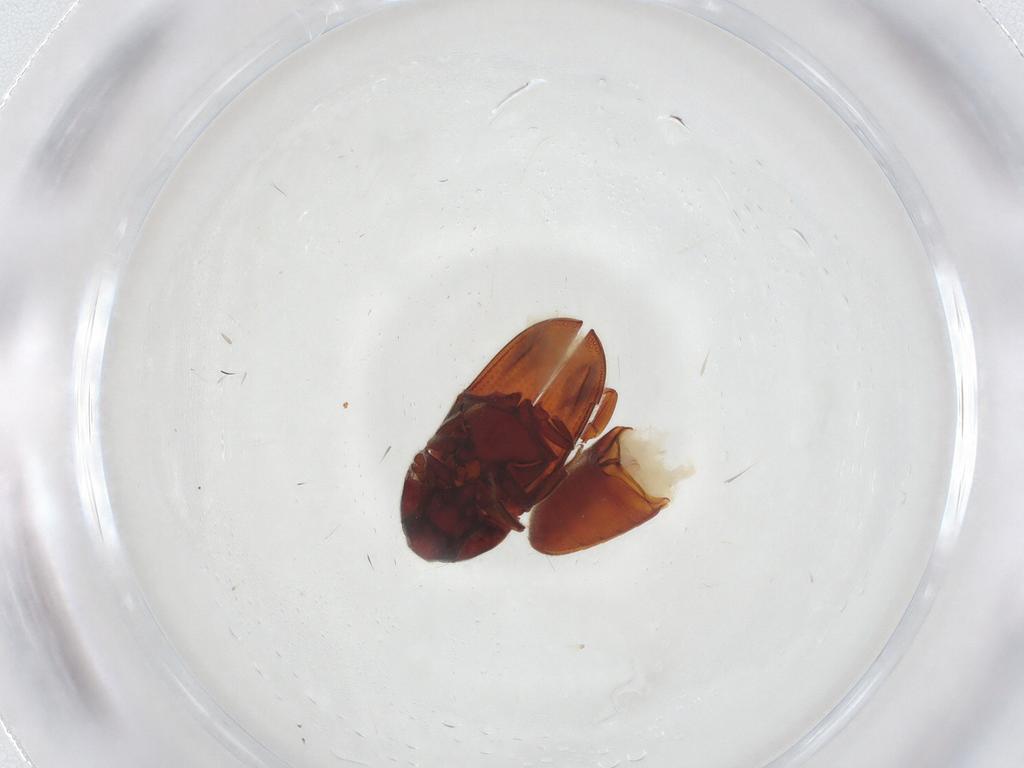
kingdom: Animalia
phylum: Arthropoda
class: Insecta
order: Coleoptera
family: Throscidae
